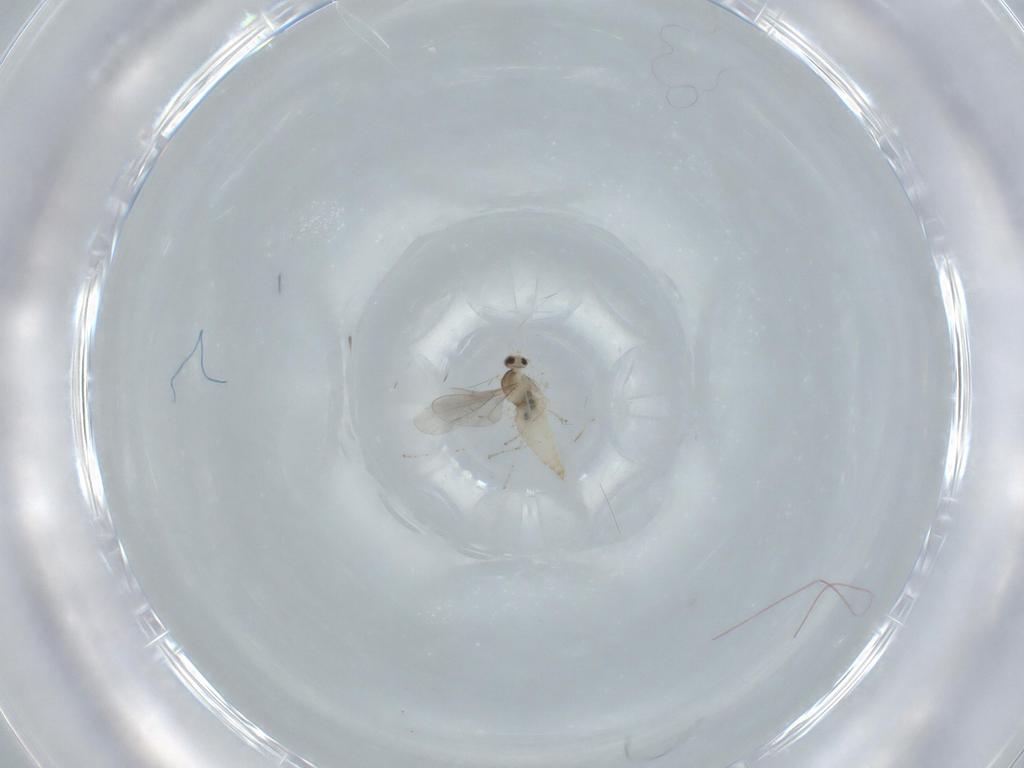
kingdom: Animalia
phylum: Arthropoda
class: Insecta
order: Diptera
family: Cecidomyiidae
